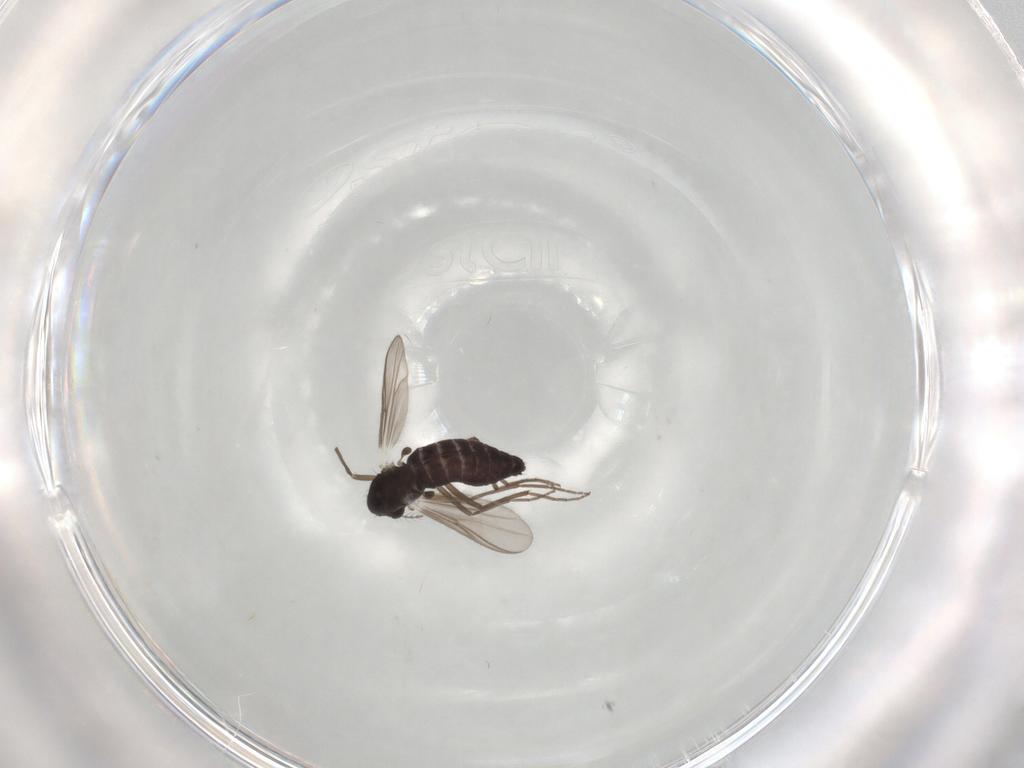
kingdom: Animalia
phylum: Arthropoda
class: Insecta
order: Diptera
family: Chironomidae
